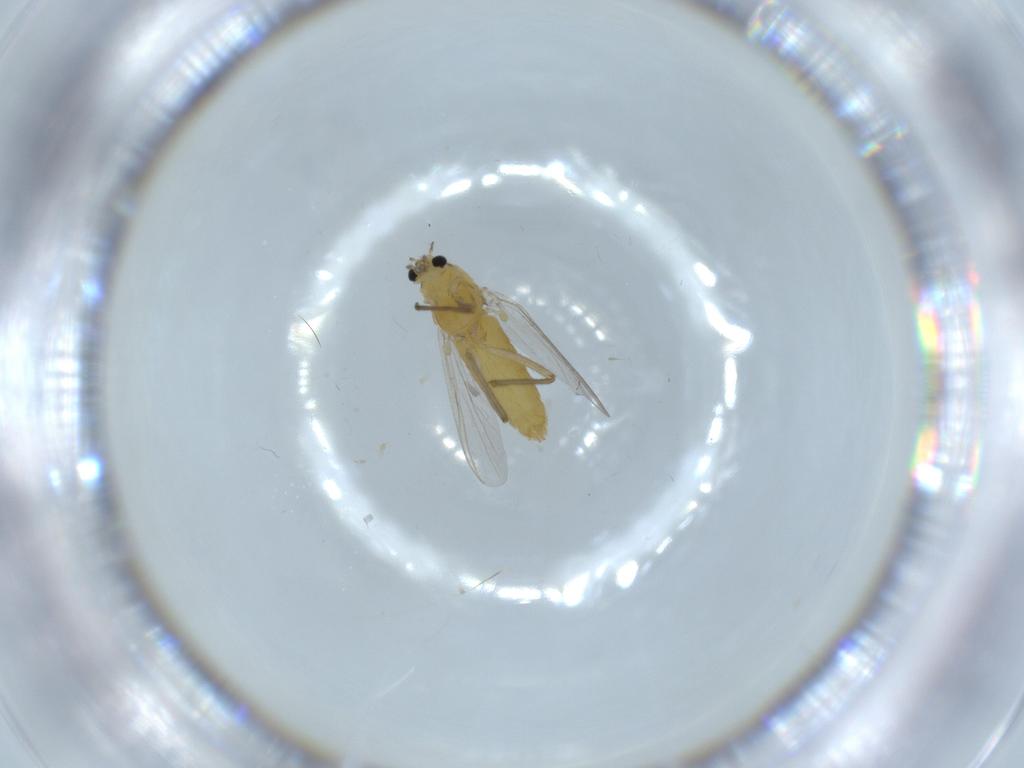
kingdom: Animalia
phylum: Arthropoda
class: Insecta
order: Diptera
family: Chironomidae
